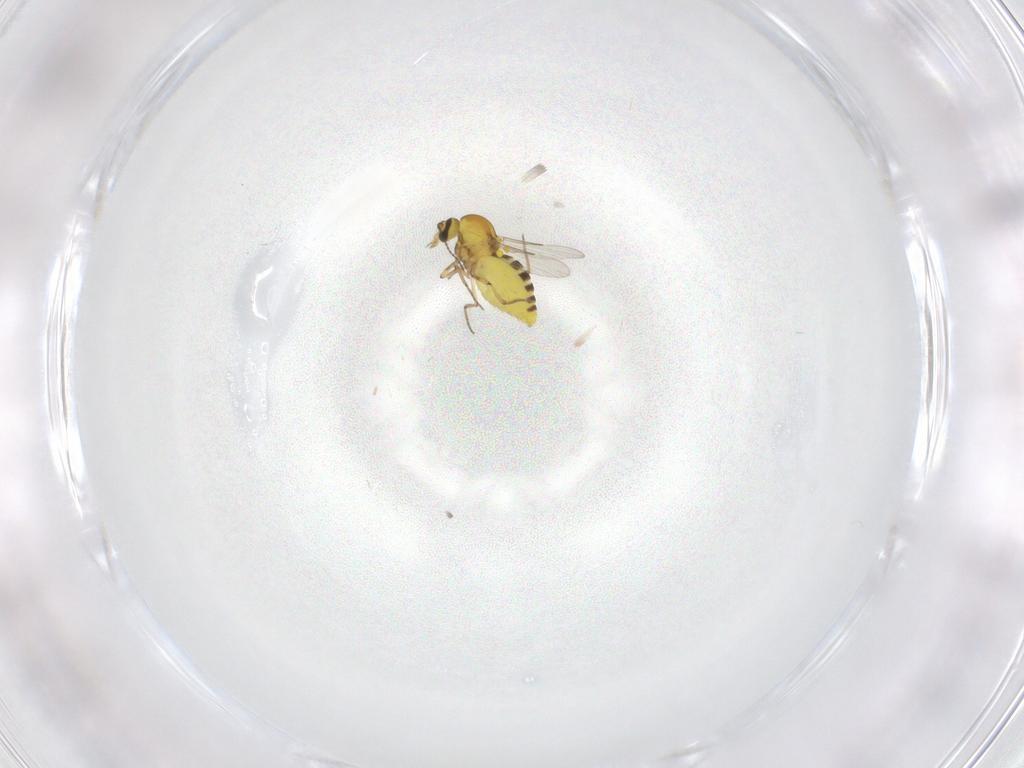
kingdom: Animalia
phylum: Arthropoda
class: Insecta
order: Diptera
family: Ceratopogonidae
